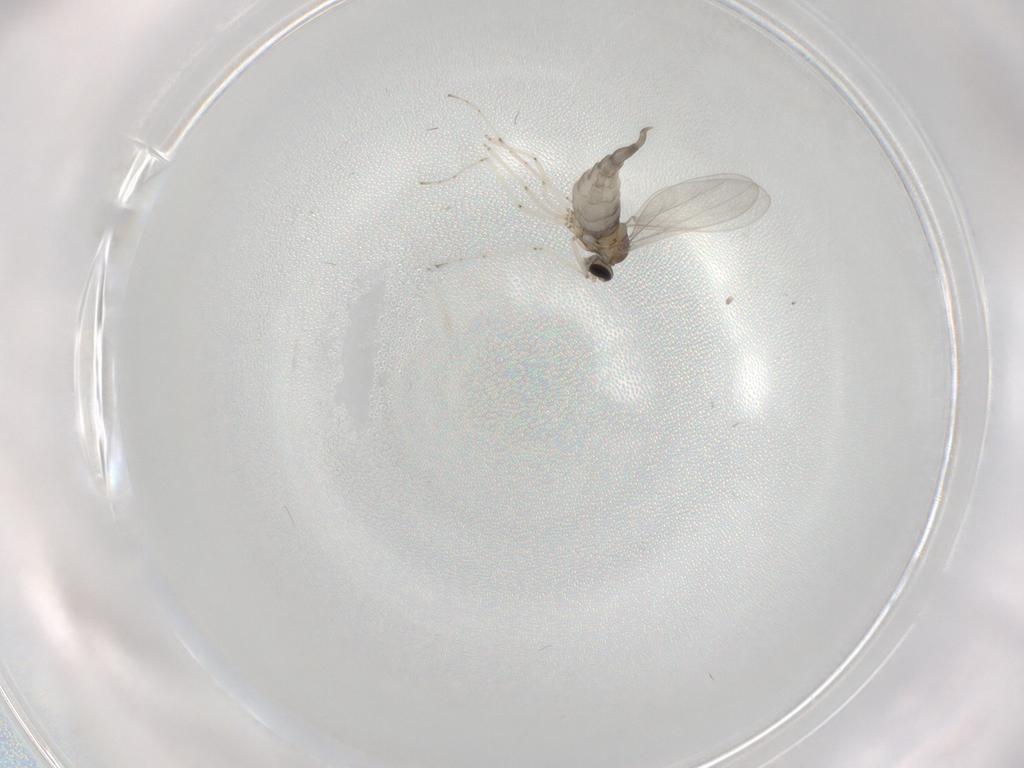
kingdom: Animalia
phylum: Arthropoda
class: Insecta
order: Diptera
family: Cecidomyiidae
